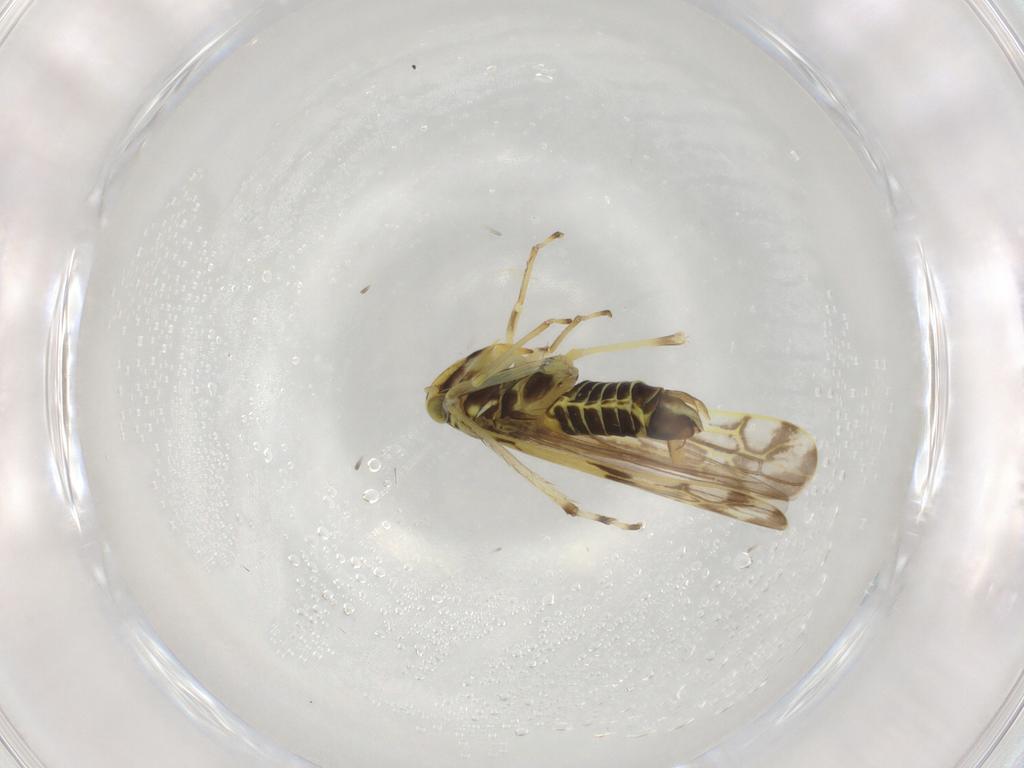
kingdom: Animalia
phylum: Arthropoda
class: Insecta
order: Hemiptera
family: Cicadellidae
